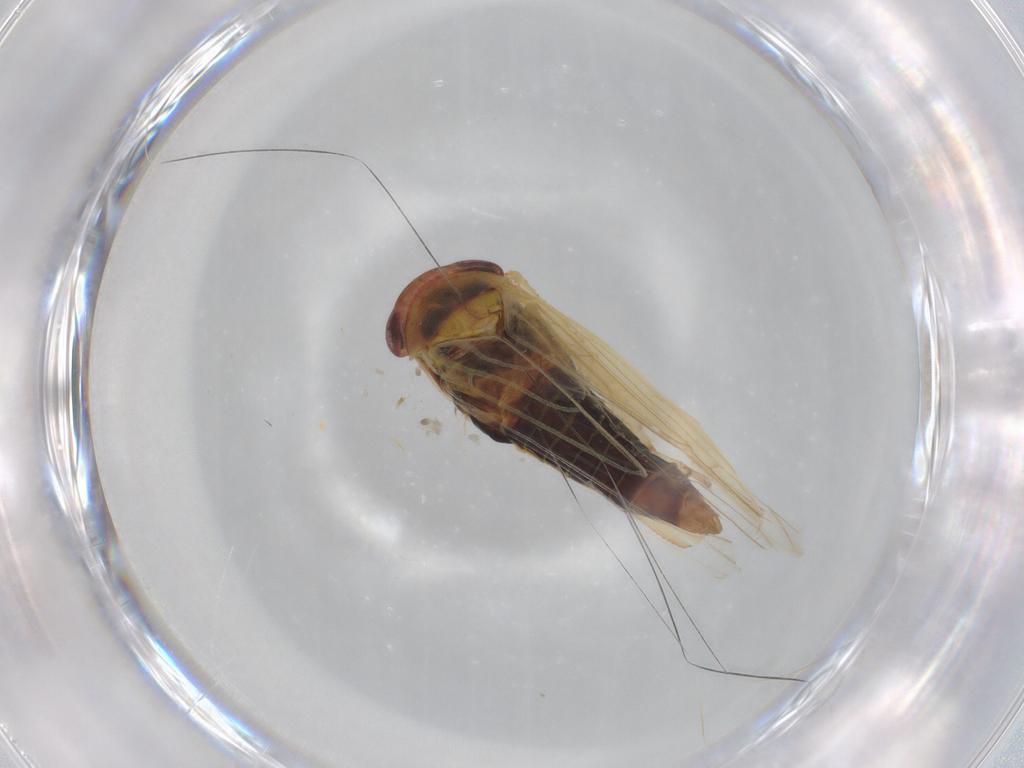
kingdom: Animalia
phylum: Arthropoda
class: Insecta
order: Hemiptera
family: Cicadellidae
